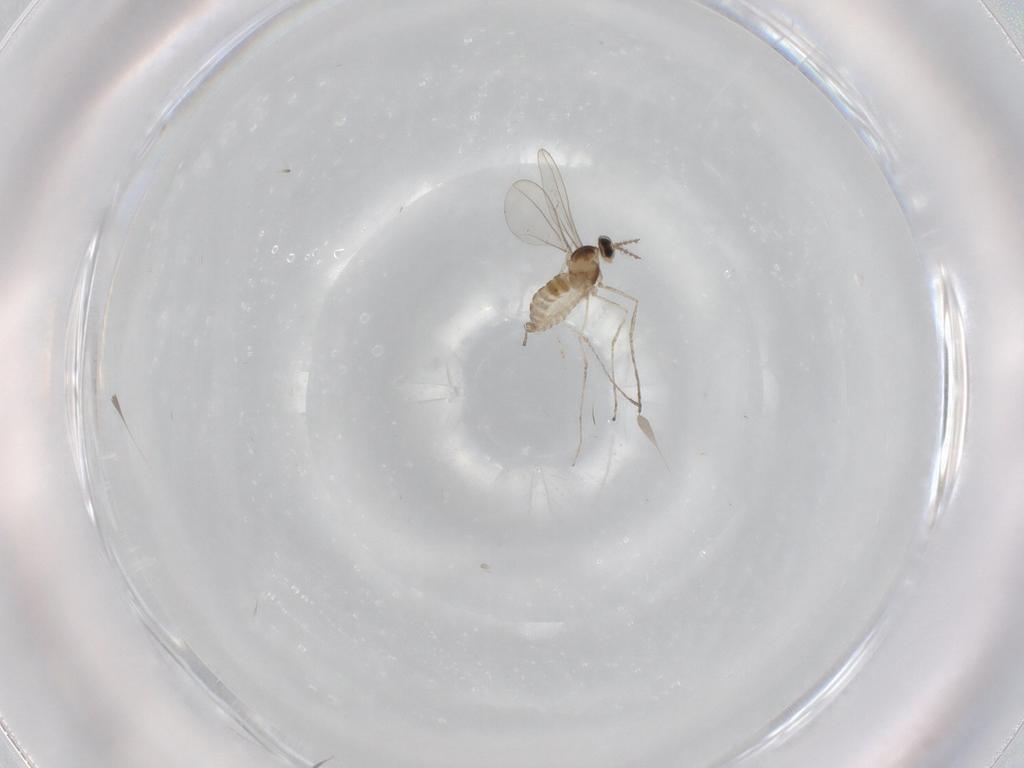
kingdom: Animalia
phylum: Arthropoda
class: Insecta
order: Diptera
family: Cecidomyiidae
